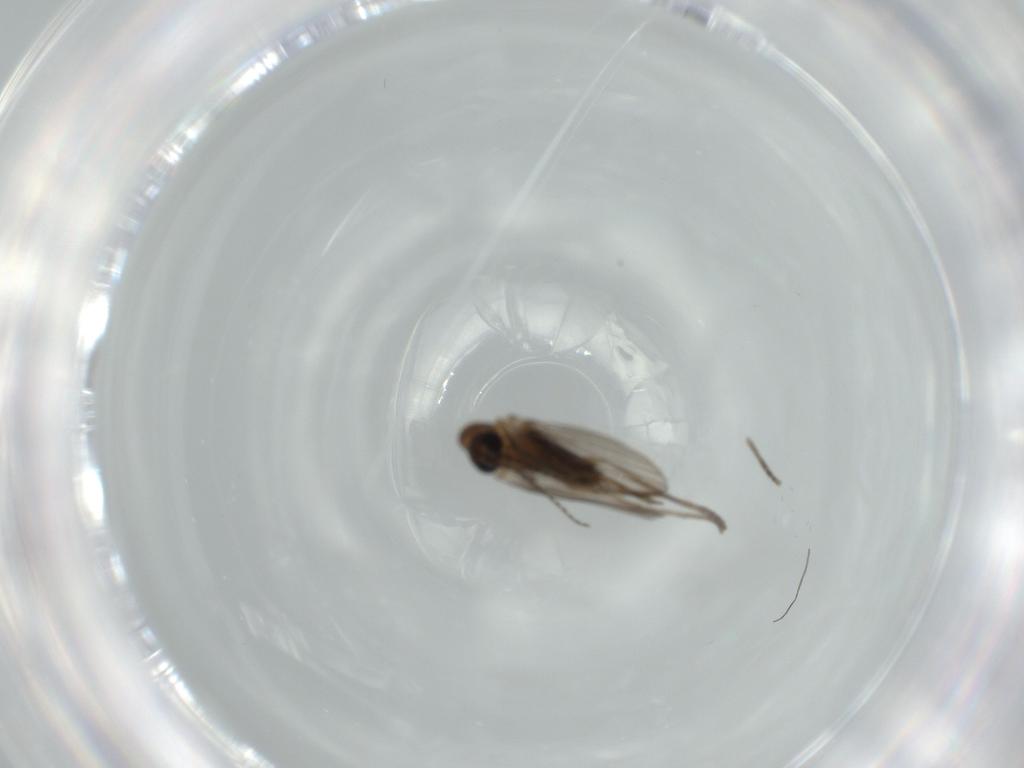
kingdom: Animalia
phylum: Arthropoda
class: Insecta
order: Diptera
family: Psychodidae
